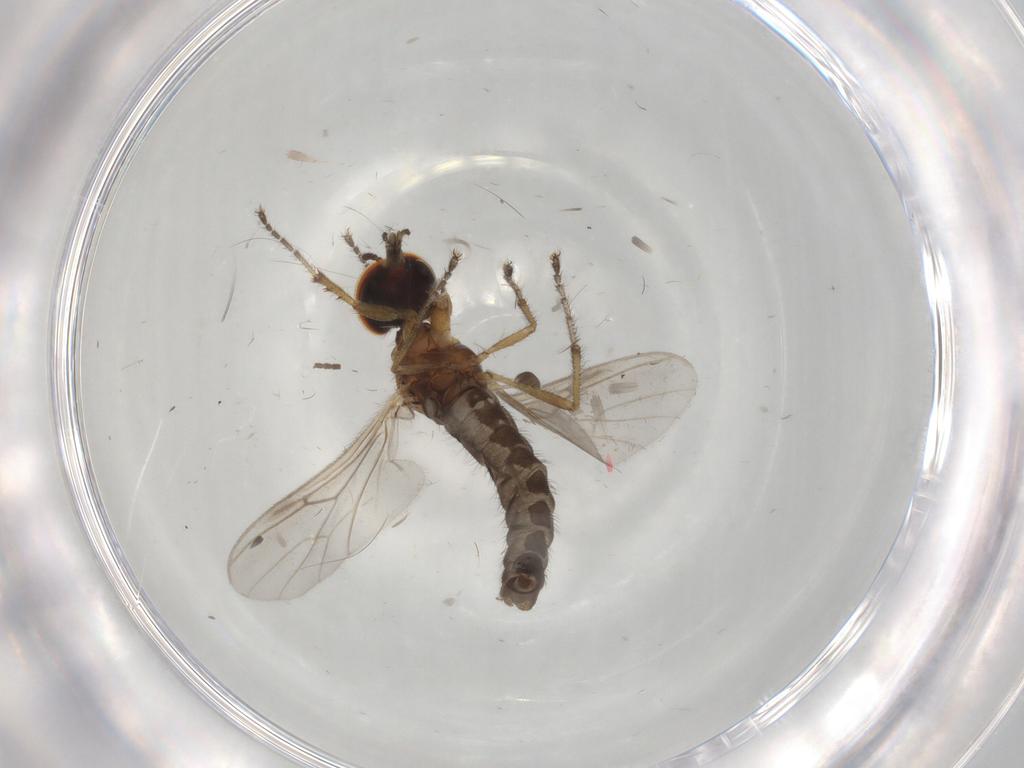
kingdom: Animalia
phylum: Arthropoda
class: Insecta
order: Diptera
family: Bibionidae
